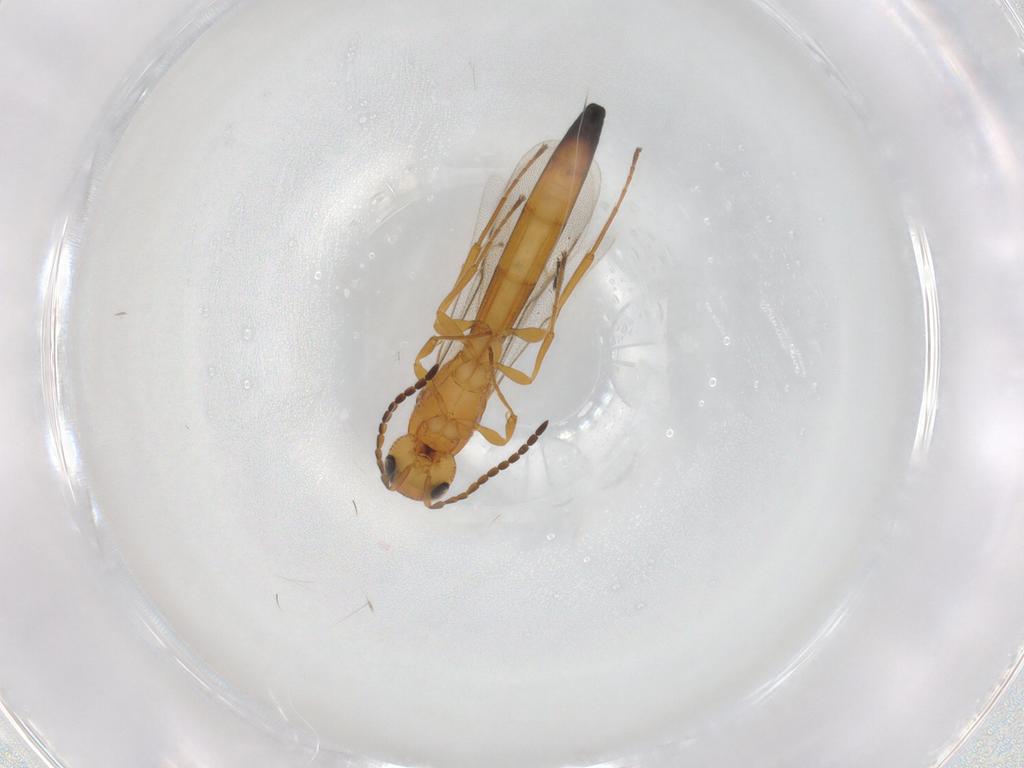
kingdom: Animalia
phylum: Arthropoda
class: Insecta
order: Hymenoptera
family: Scelionidae
